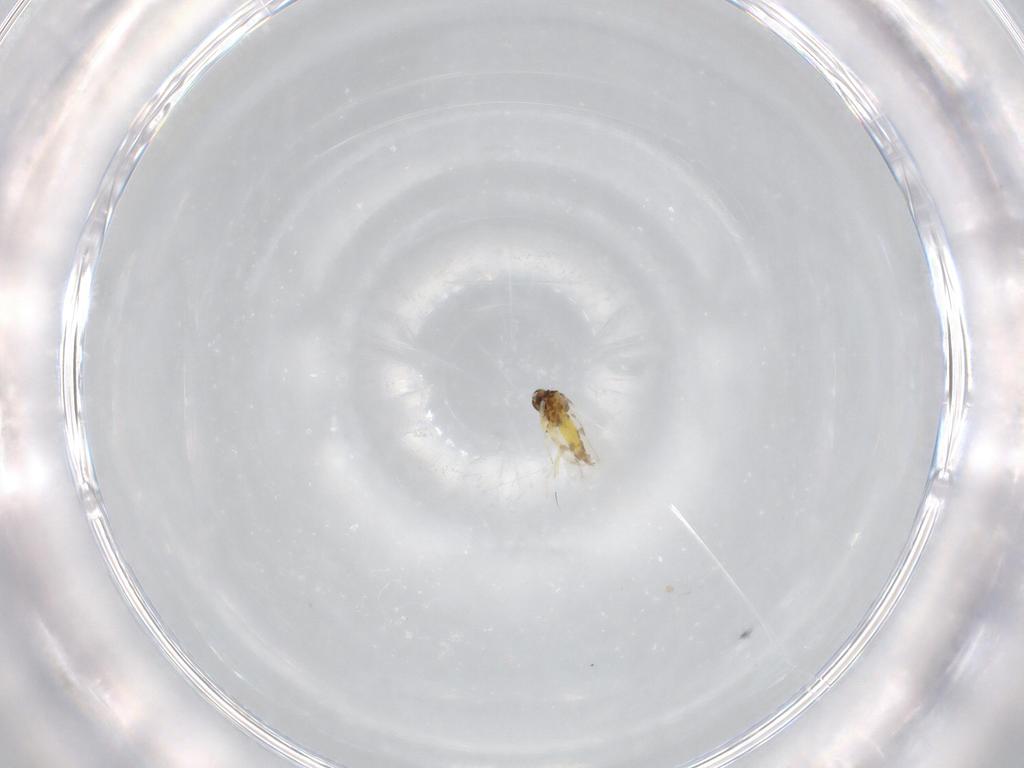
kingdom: Animalia
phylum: Arthropoda
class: Insecta
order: Hemiptera
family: Aleyrodidae
